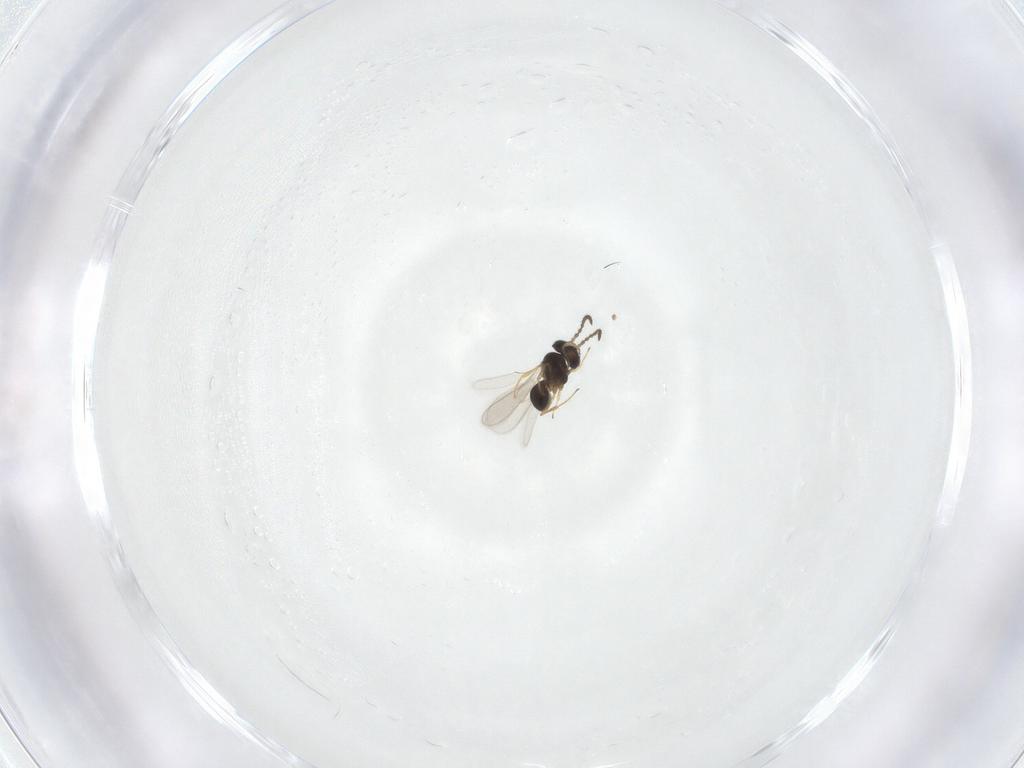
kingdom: Animalia
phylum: Arthropoda
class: Insecta
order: Hymenoptera
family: Scelionidae
